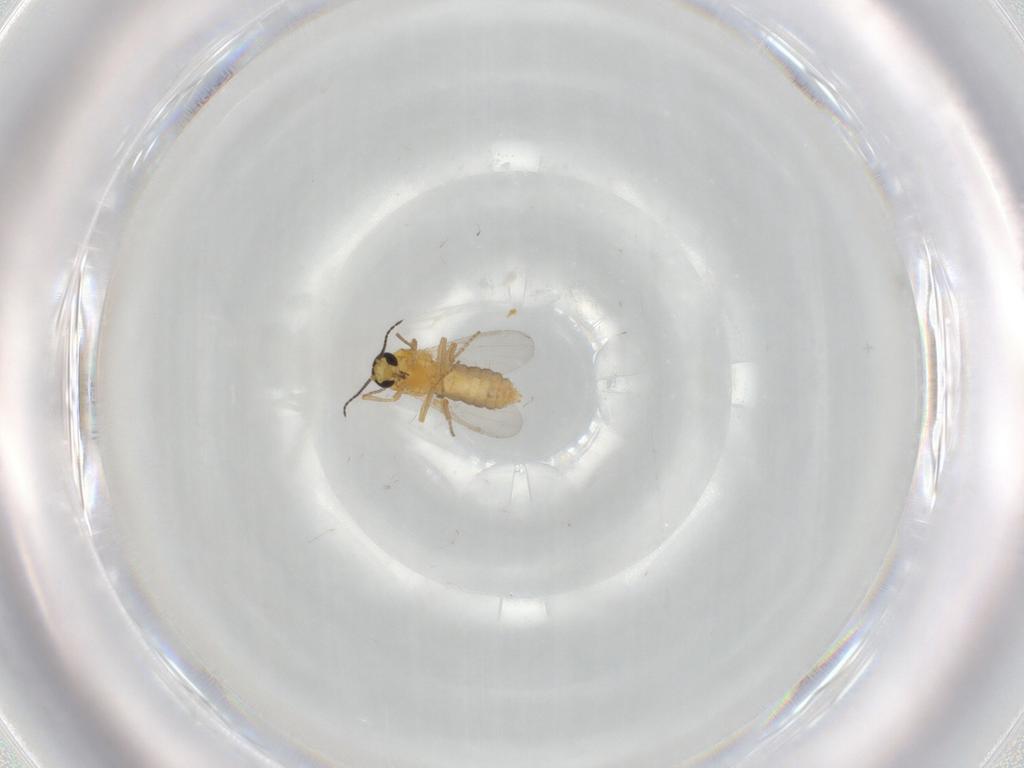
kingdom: Animalia
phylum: Arthropoda
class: Insecta
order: Diptera
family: Ceratopogonidae
